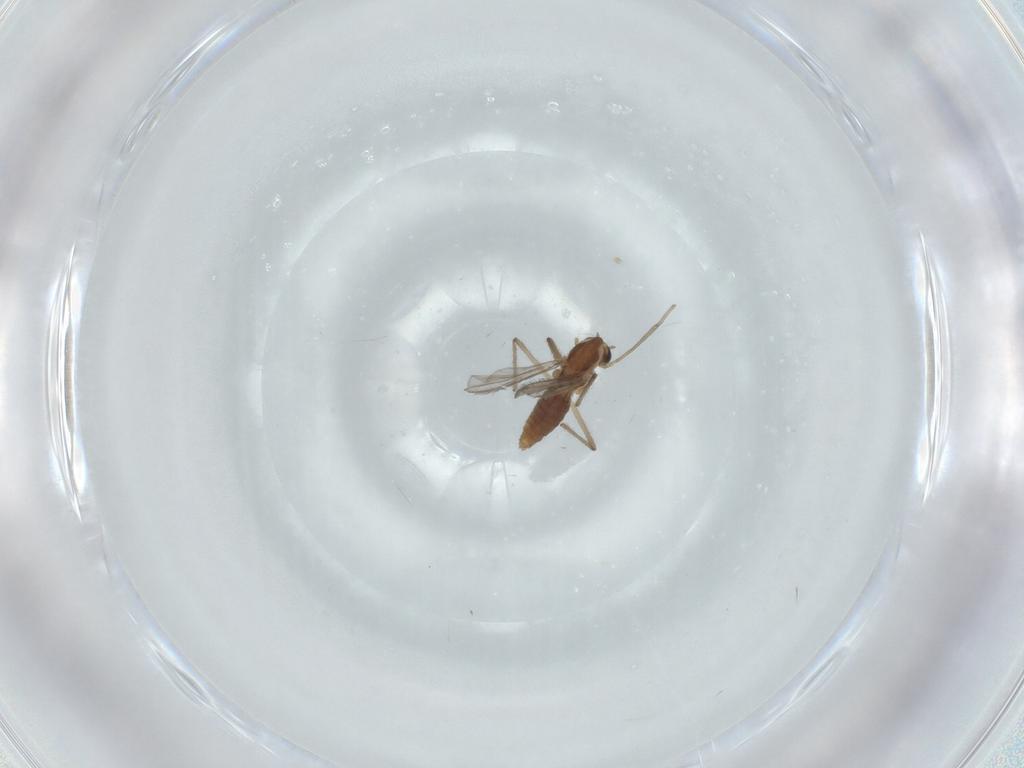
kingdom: Animalia
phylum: Arthropoda
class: Insecta
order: Diptera
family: Chironomidae
